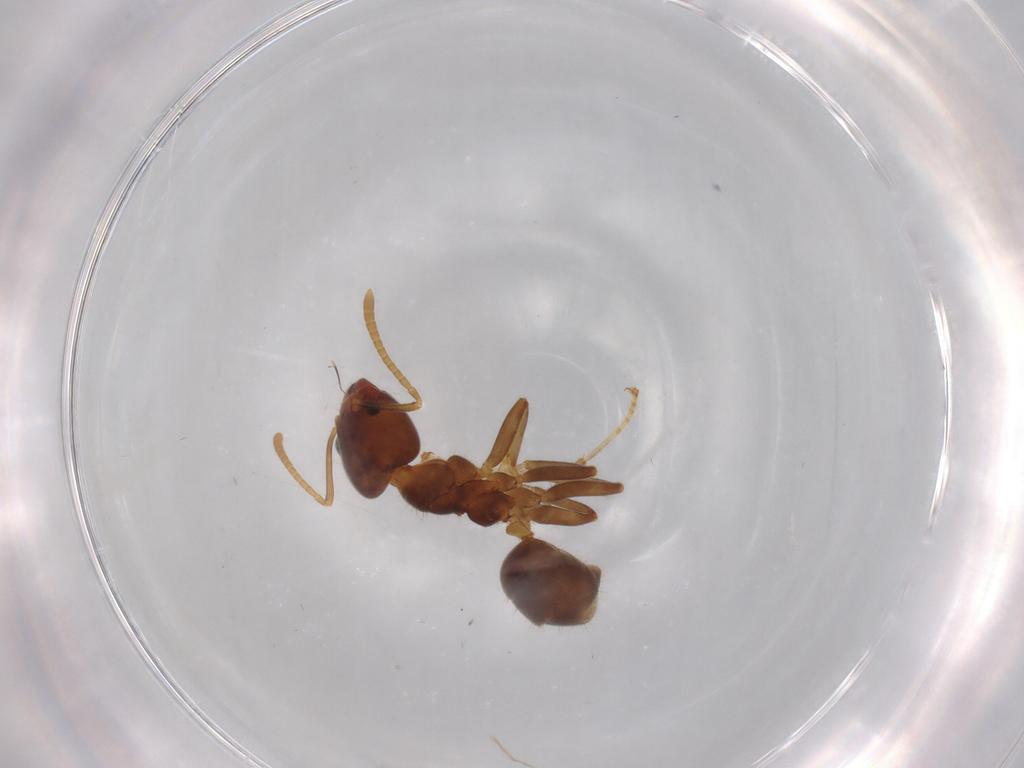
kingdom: Animalia
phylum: Arthropoda
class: Insecta
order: Hymenoptera
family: Formicidae
